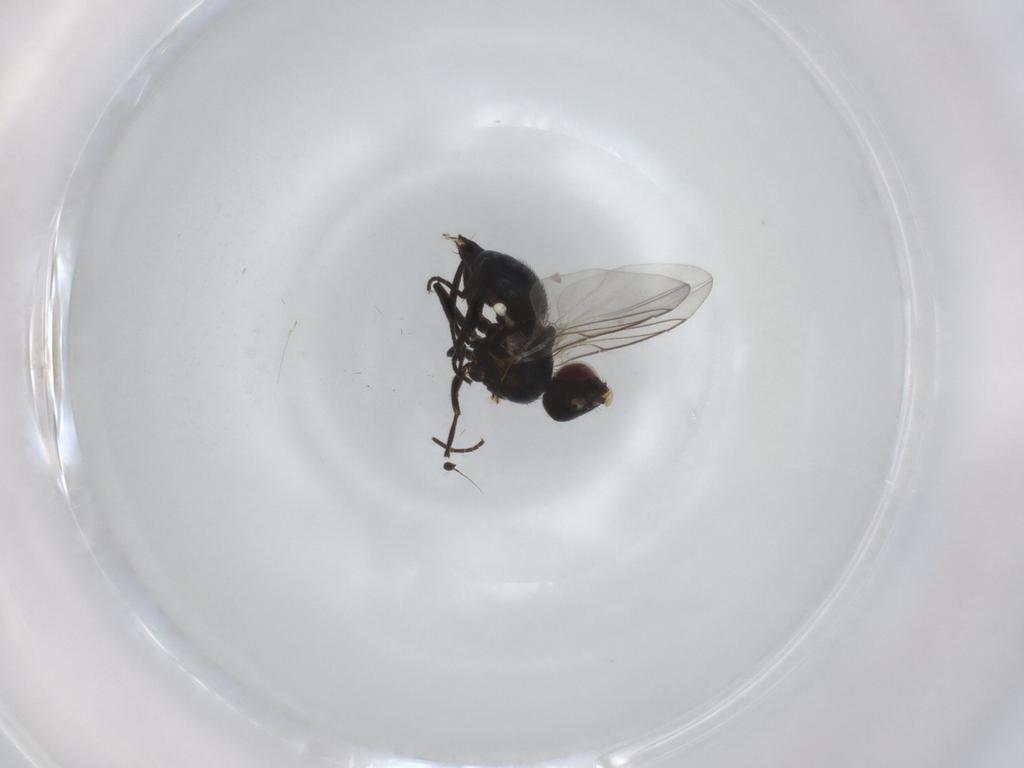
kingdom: Animalia
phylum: Arthropoda
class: Insecta
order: Diptera
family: Agromyzidae
